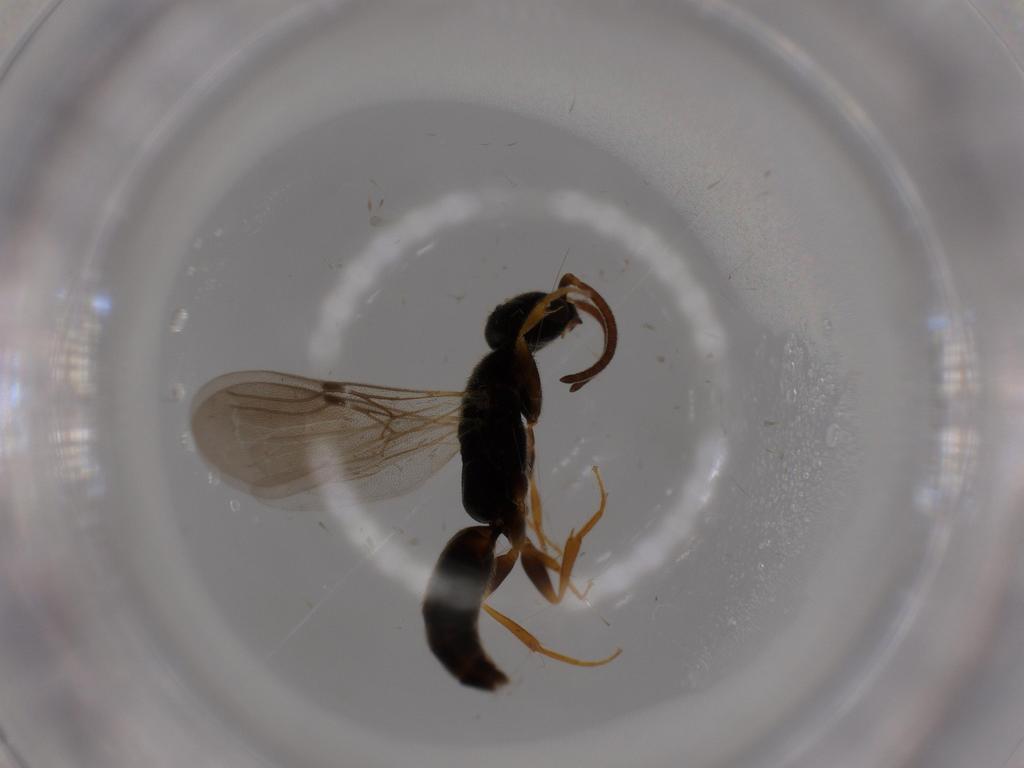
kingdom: Animalia
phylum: Arthropoda
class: Insecta
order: Hymenoptera
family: Bethylidae
